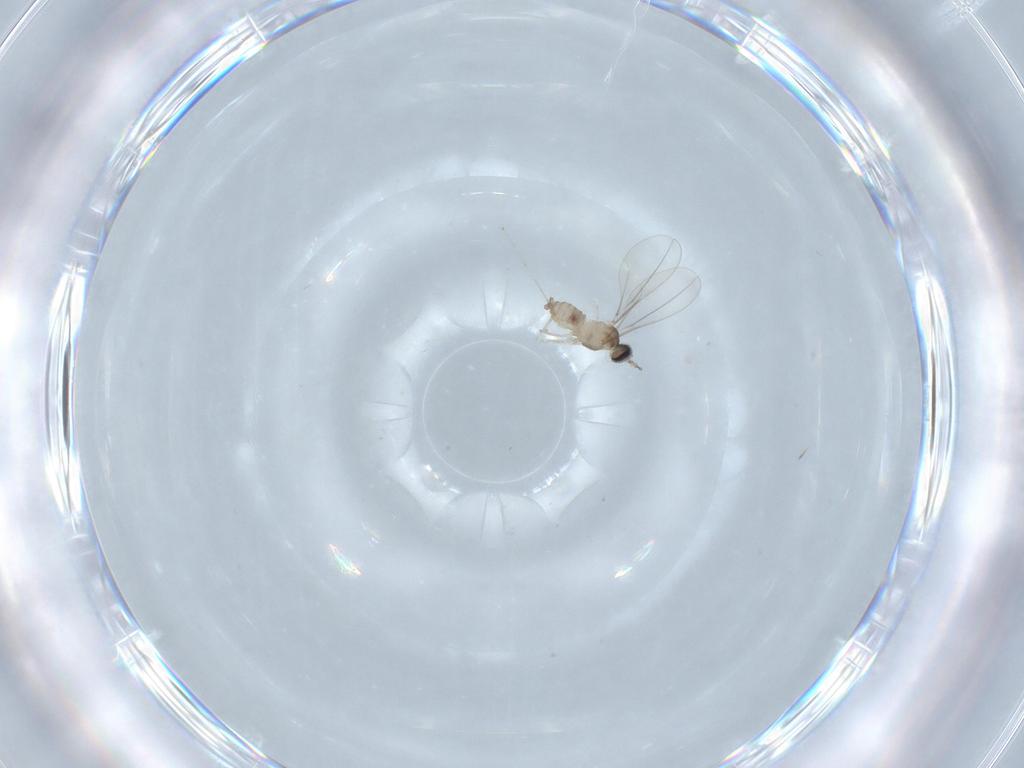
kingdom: Animalia
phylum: Arthropoda
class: Insecta
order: Diptera
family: Cecidomyiidae
